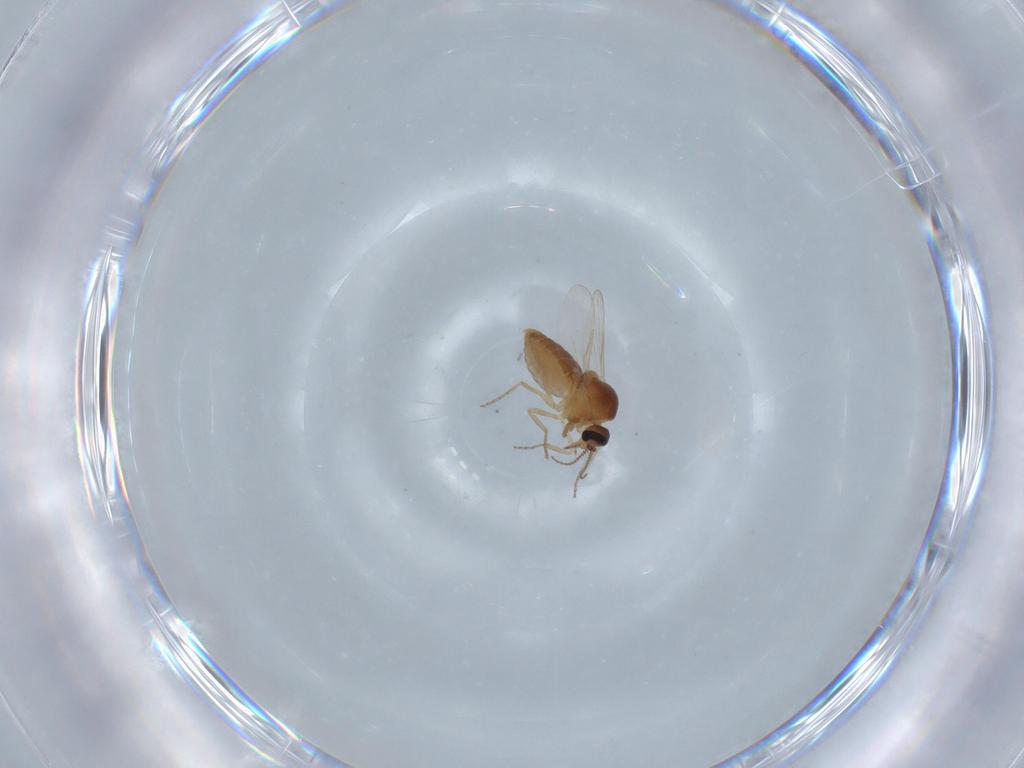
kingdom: Animalia
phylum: Arthropoda
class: Insecta
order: Diptera
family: Ceratopogonidae
